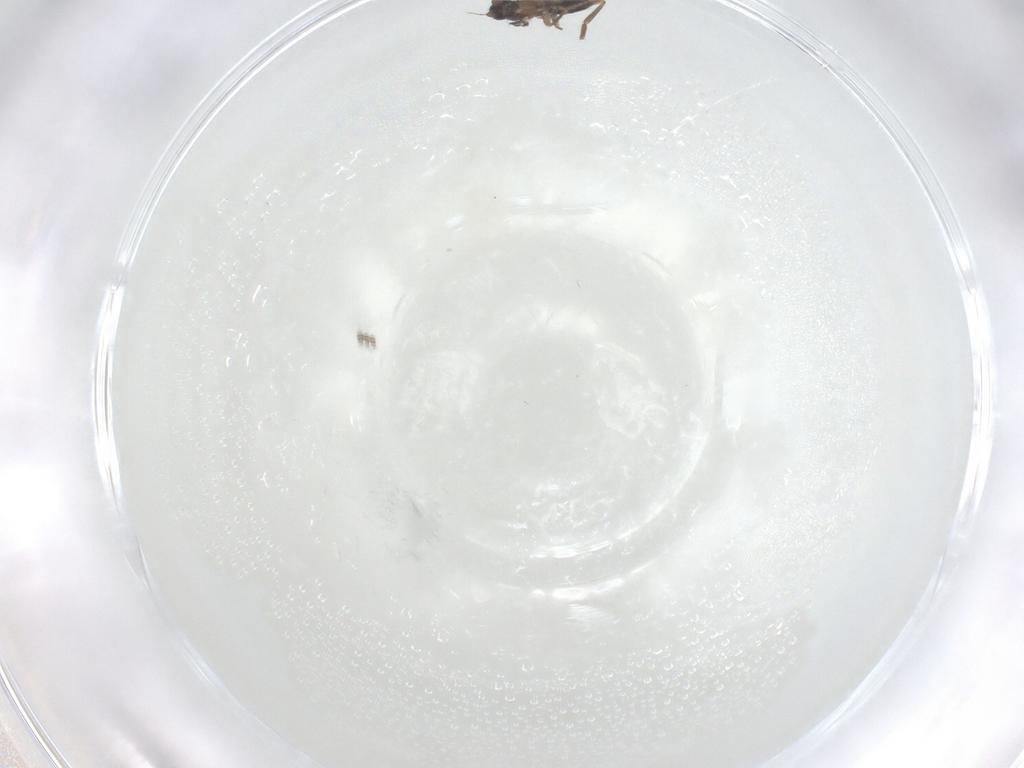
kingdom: Animalia
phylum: Arthropoda
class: Insecta
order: Diptera
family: Phoridae
